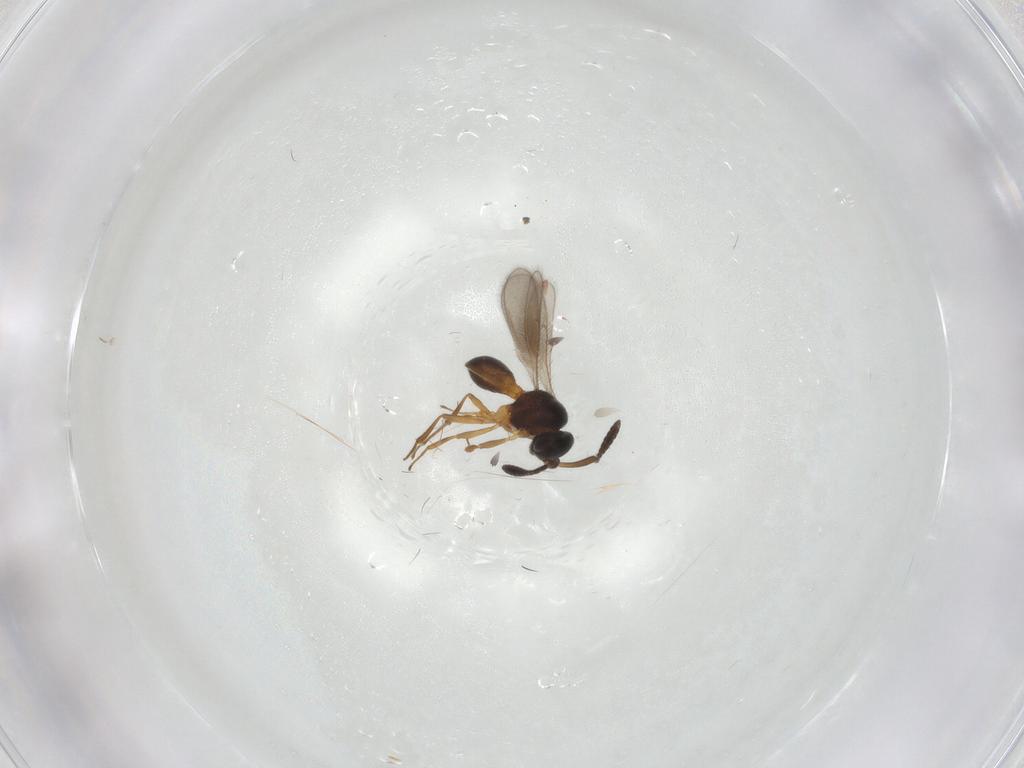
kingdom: Animalia
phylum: Arthropoda
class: Insecta
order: Hymenoptera
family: Scelionidae
